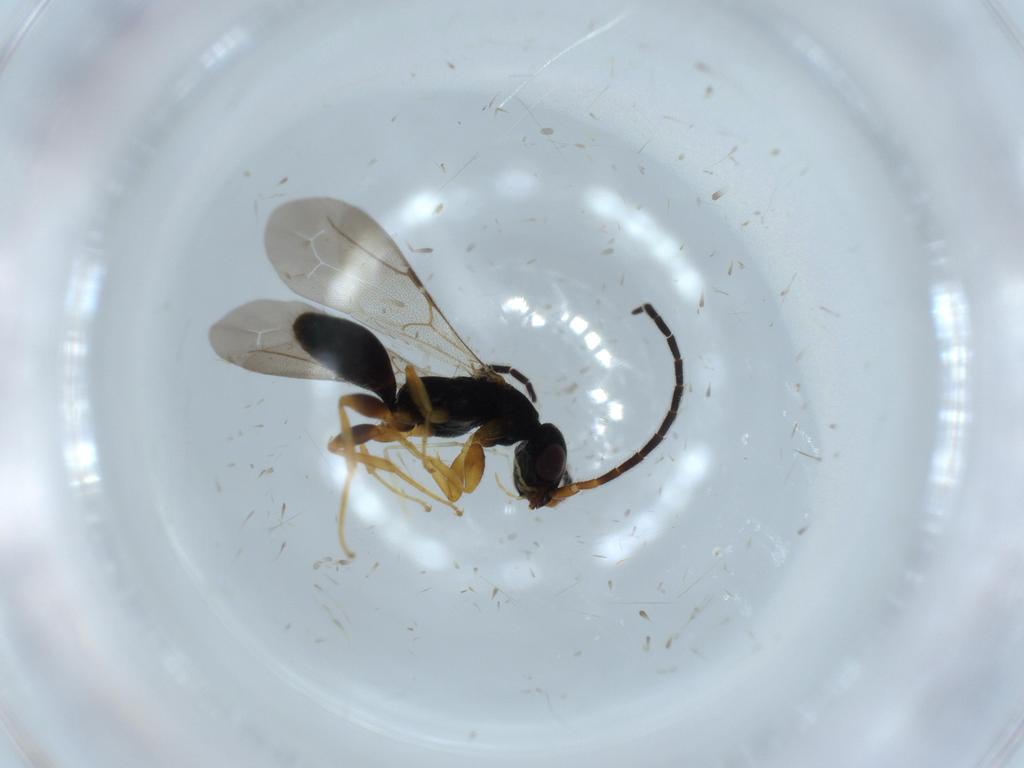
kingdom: Animalia
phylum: Arthropoda
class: Insecta
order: Hymenoptera
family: Bethylidae
